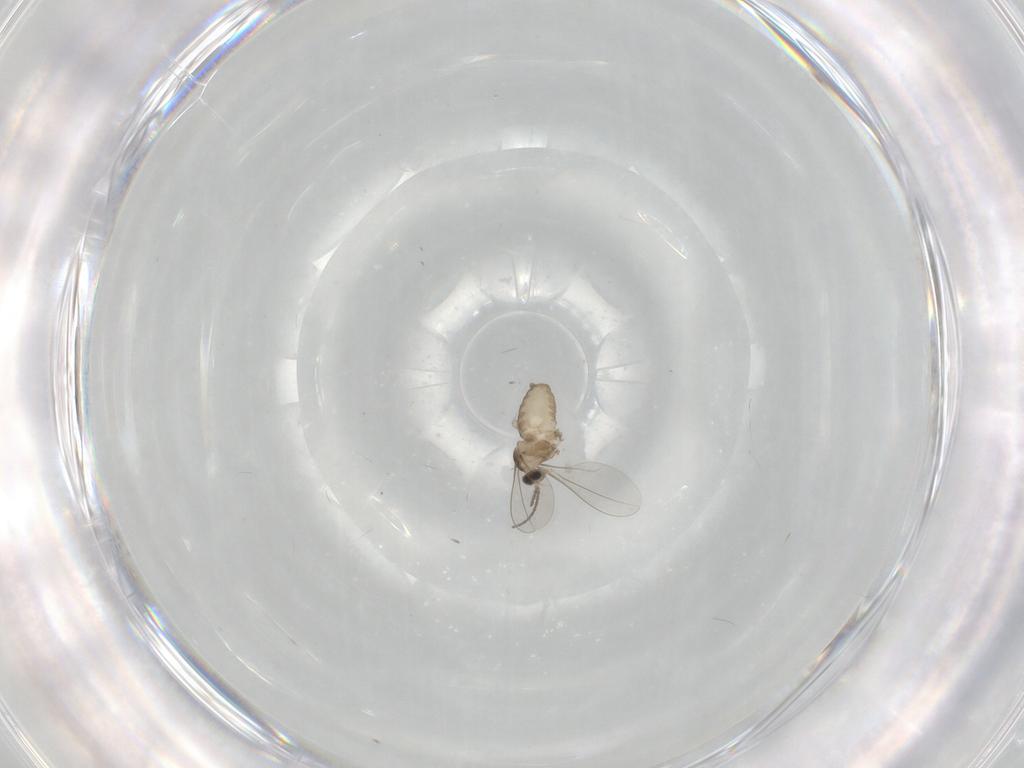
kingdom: Animalia
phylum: Arthropoda
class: Insecta
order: Diptera
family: Cecidomyiidae
